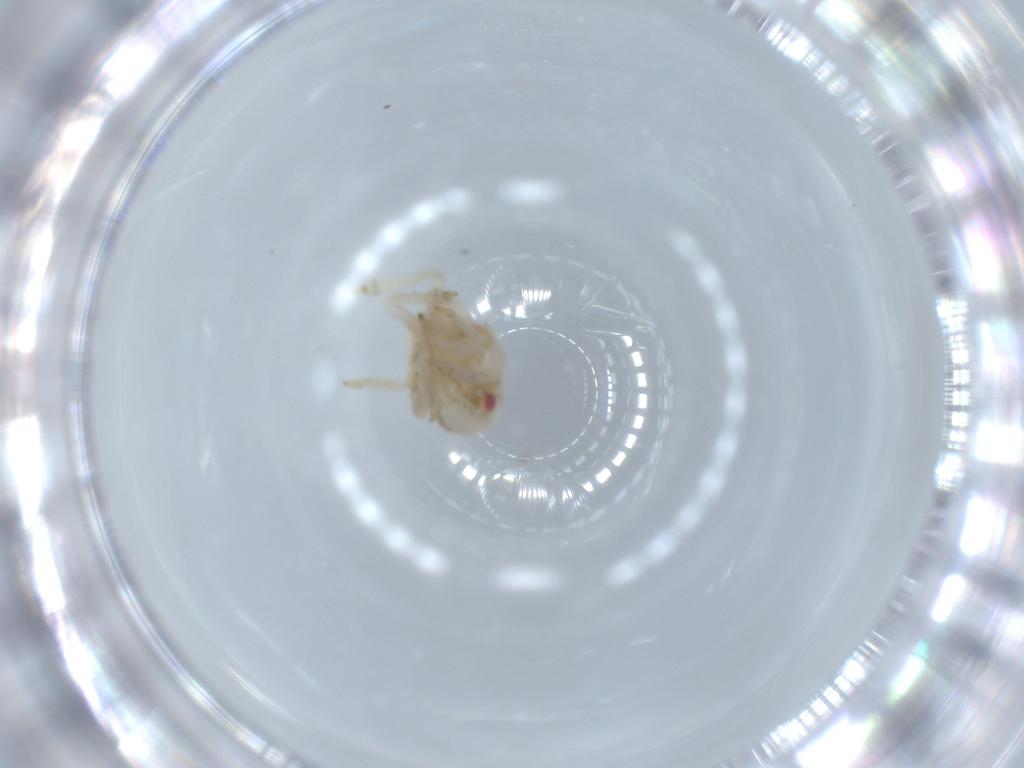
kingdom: Animalia
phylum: Arthropoda
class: Insecta
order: Hemiptera
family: Acanaloniidae
